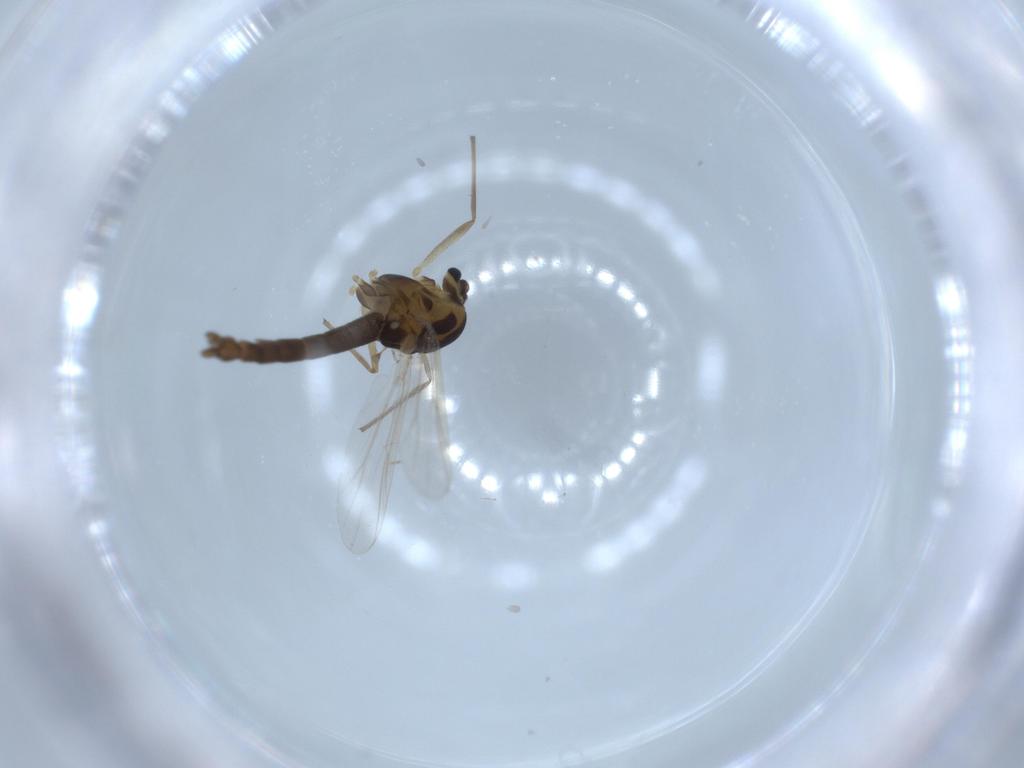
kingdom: Animalia
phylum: Arthropoda
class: Insecta
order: Diptera
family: Chironomidae
